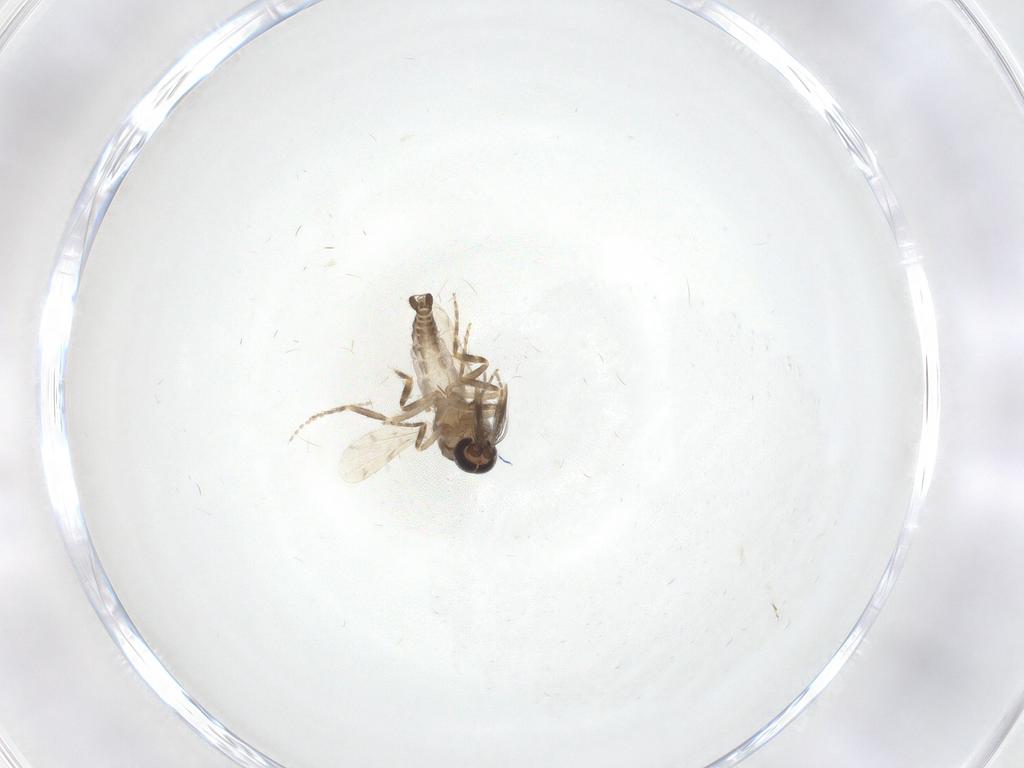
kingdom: Animalia
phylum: Arthropoda
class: Insecta
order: Diptera
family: Ceratopogonidae
